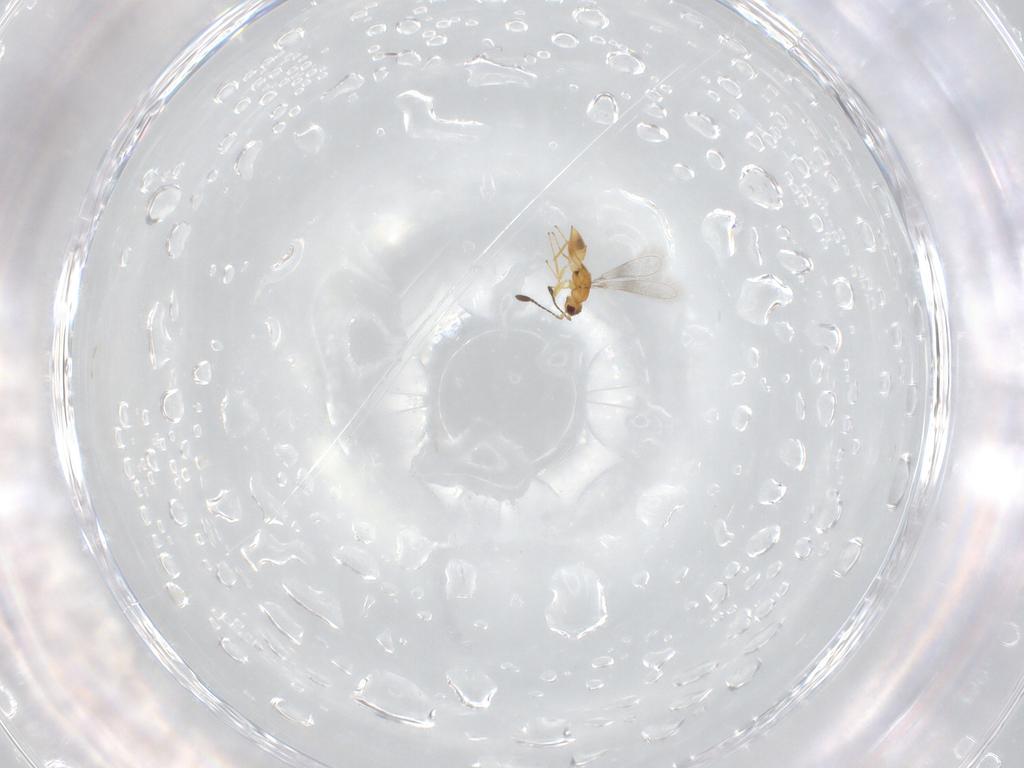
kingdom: Animalia
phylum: Arthropoda
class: Insecta
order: Hymenoptera
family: Mymaridae
